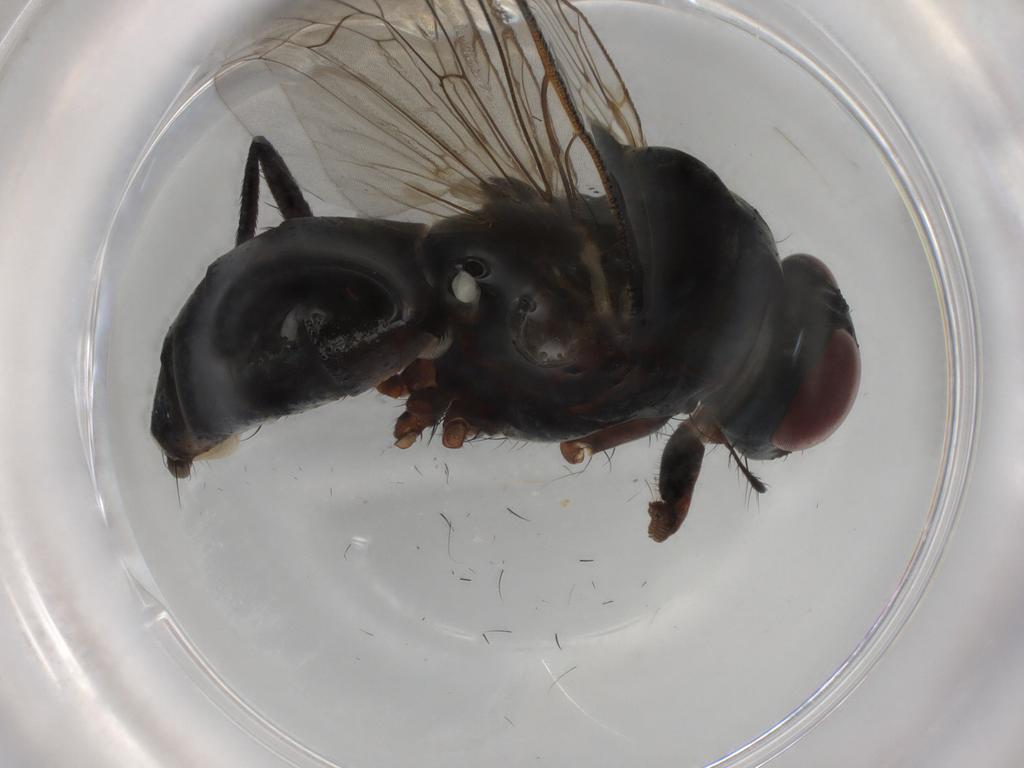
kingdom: Animalia
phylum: Arthropoda
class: Insecta
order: Diptera
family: Anthomyiidae
